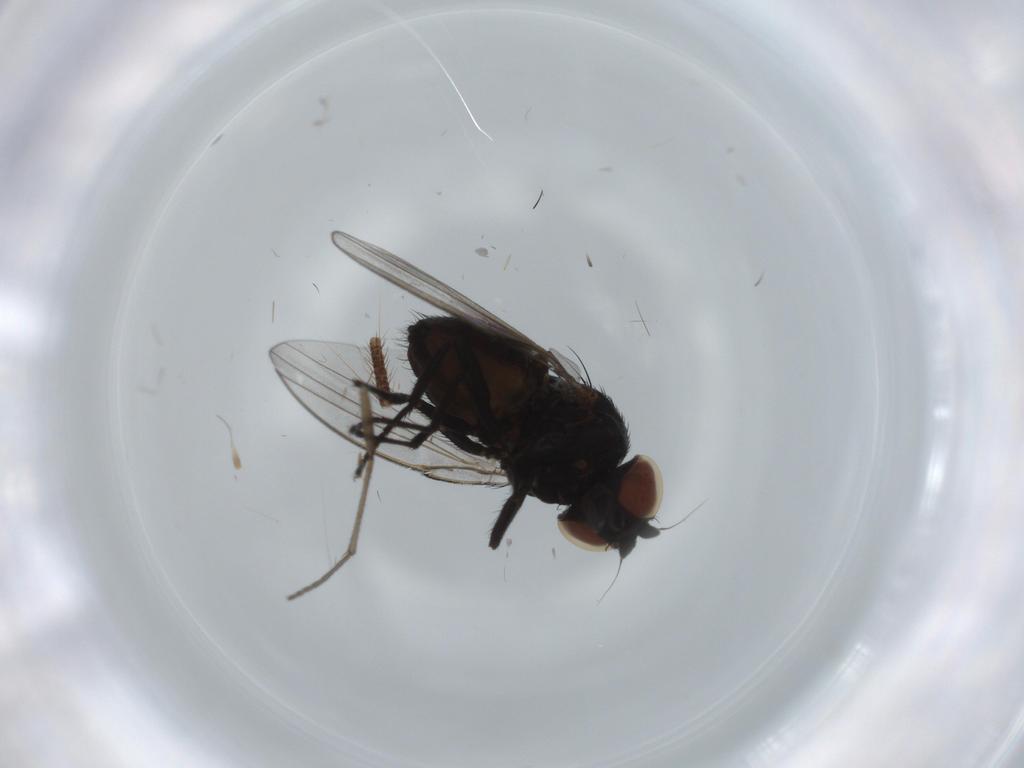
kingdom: Animalia
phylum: Arthropoda
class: Insecta
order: Diptera
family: Milichiidae
